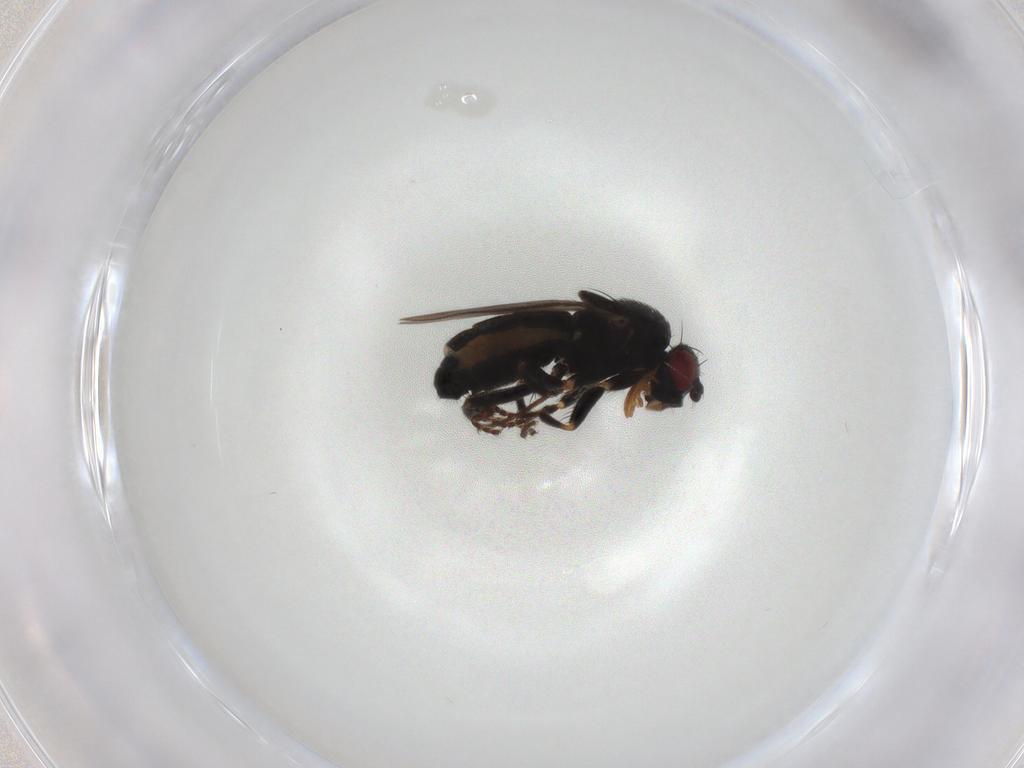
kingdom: Animalia
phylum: Arthropoda
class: Insecta
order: Diptera
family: Sphaeroceridae
